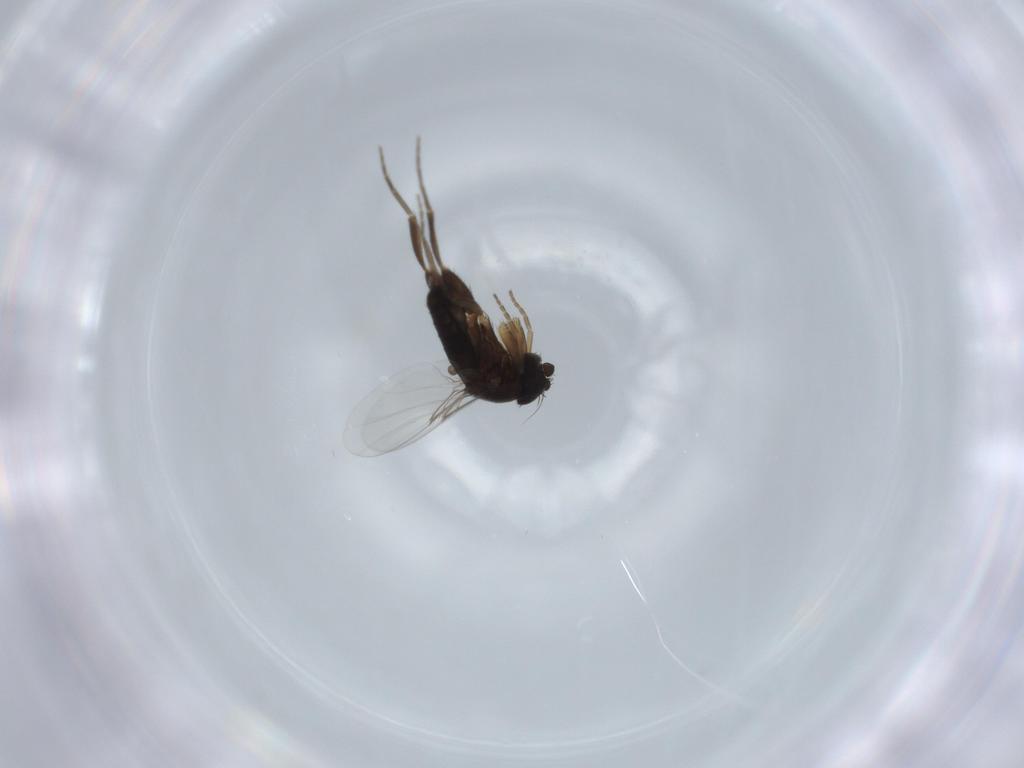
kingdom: Animalia
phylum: Arthropoda
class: Insecta
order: Diptera
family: Phoridae
